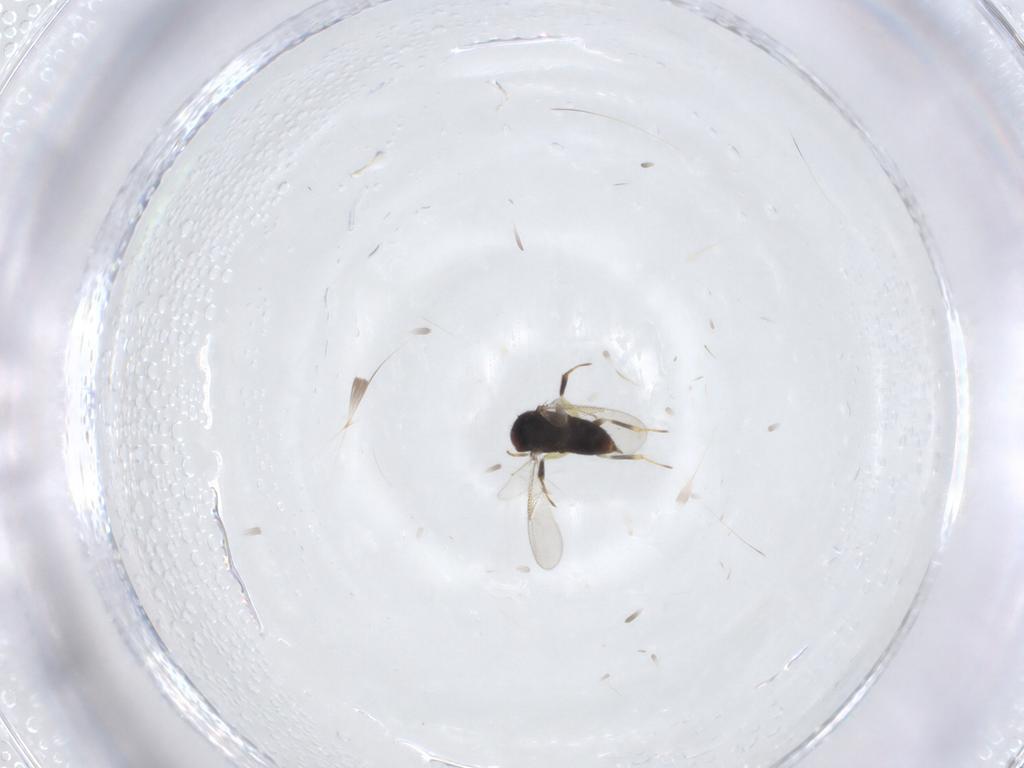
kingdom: Animalia
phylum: Arthropoda
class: Insecta
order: Hymenoptera
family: Aphelinidae
